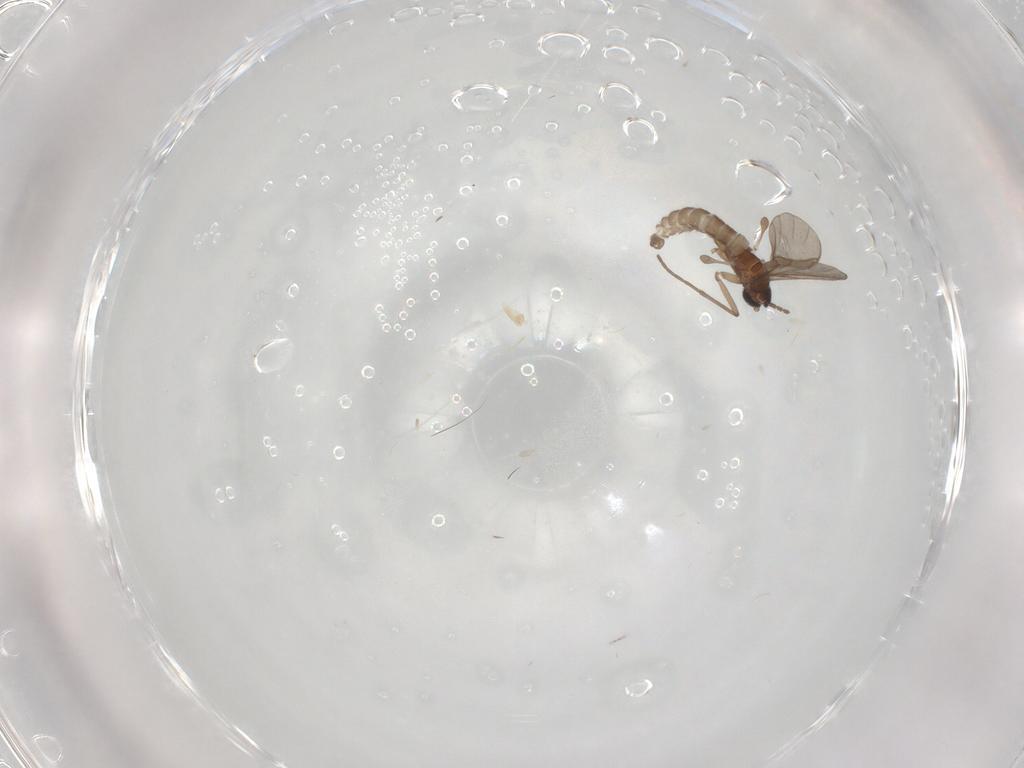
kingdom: Animalia
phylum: Arthropoda
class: Insecta
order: Diptera
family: Sciaridae
